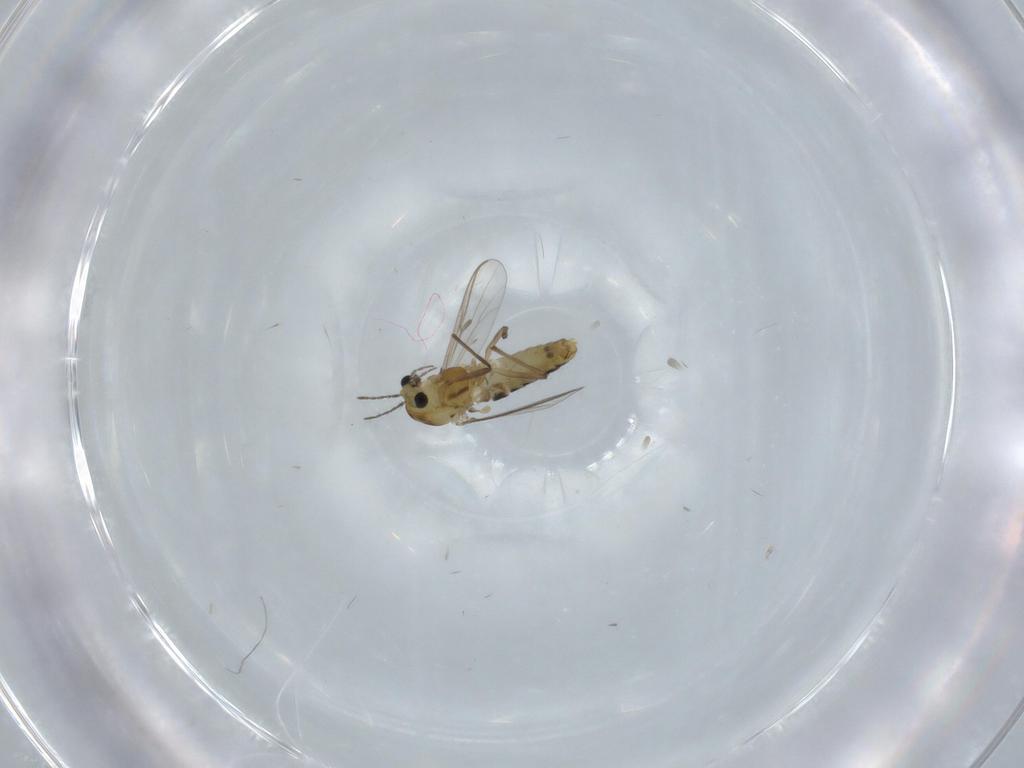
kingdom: Animalia
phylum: Arthropoda
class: Insecta
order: Diptera
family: Chironomidae
